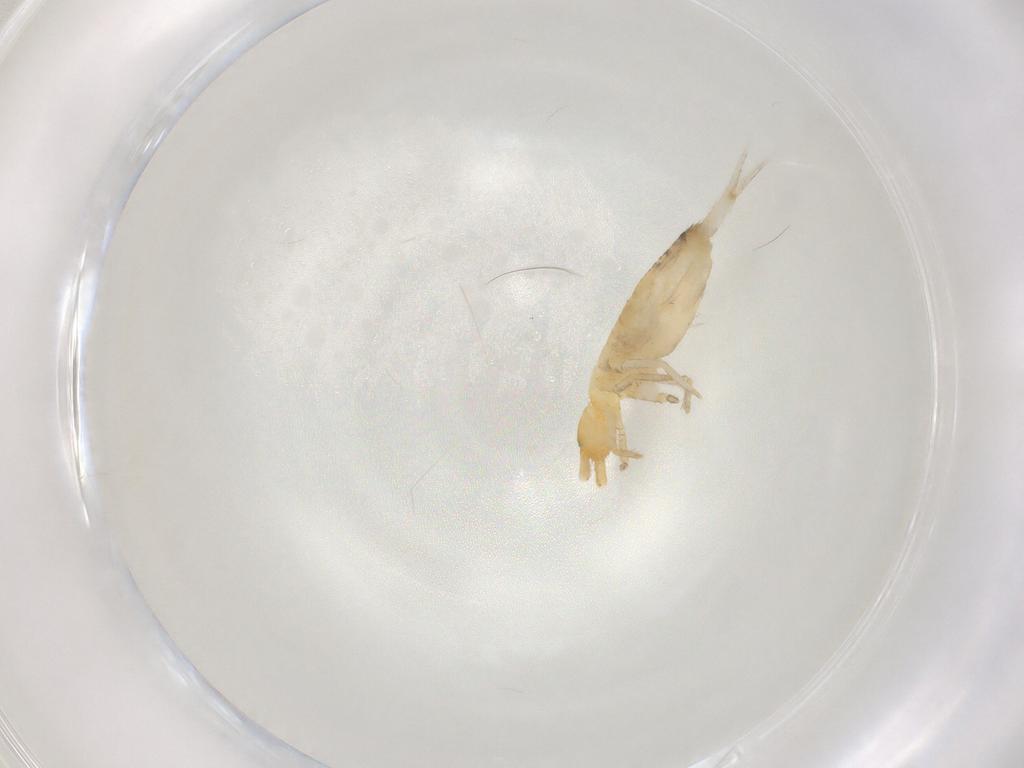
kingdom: Animalia
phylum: Arthropoda
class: Collembola
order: Entomobryomorpha
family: Entomobryidae
